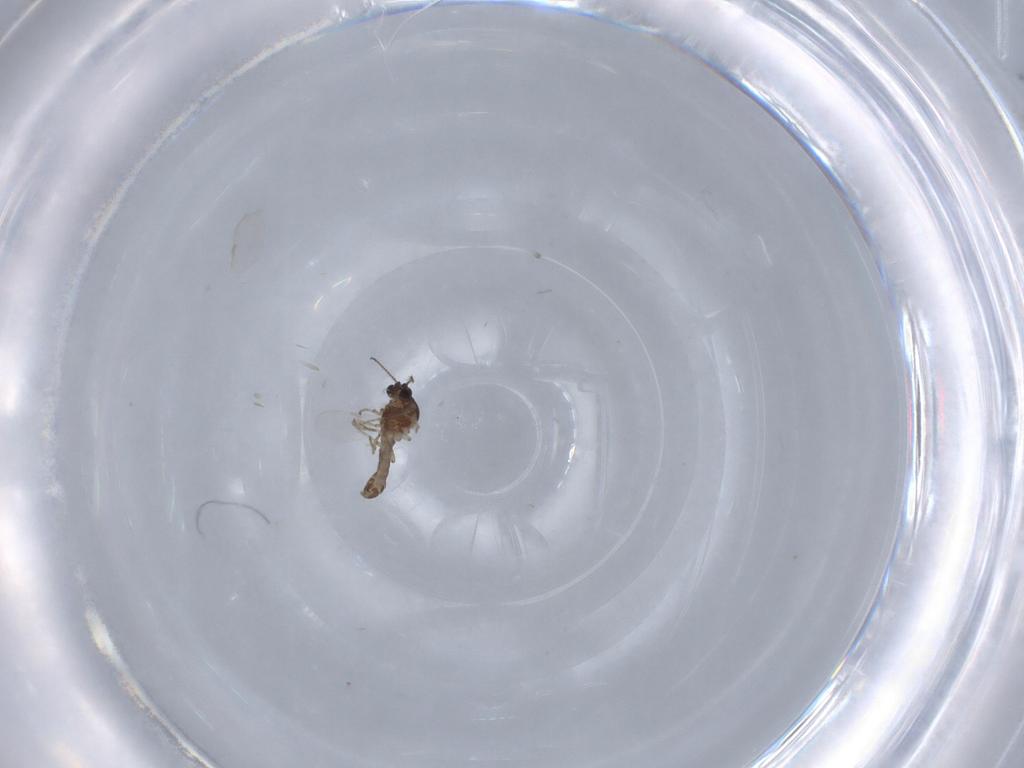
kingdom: Animalia
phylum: Arthropoda
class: Insecta
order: Diptera
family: Ceratopogonidae
